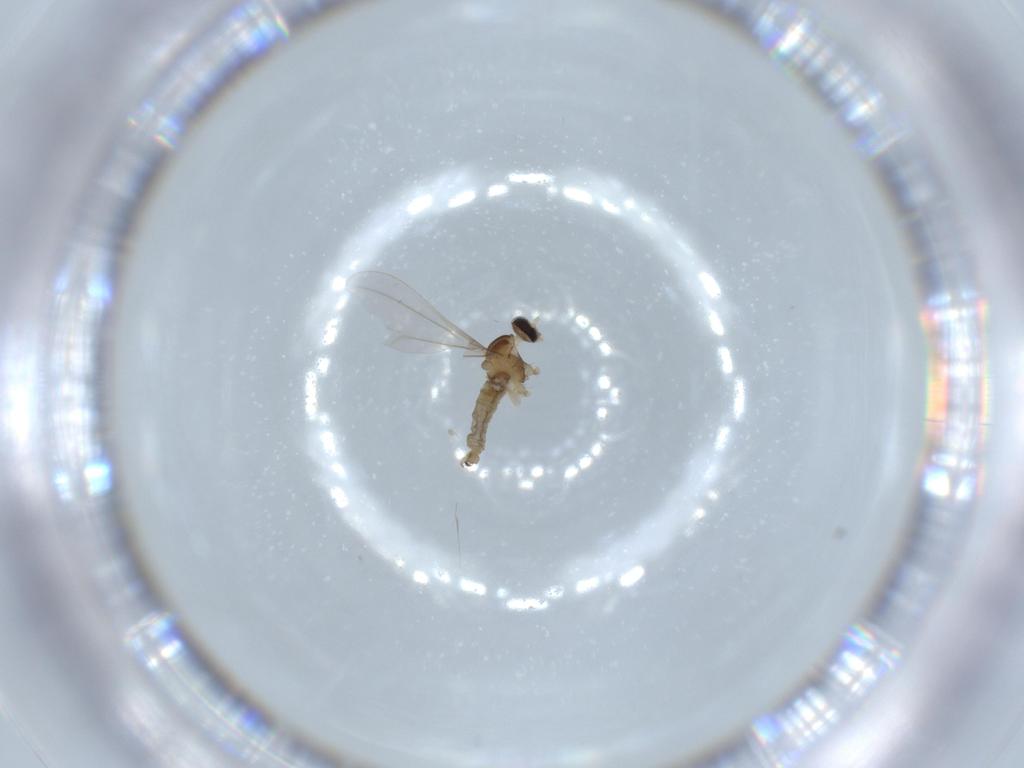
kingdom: Animalia
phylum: Arthropoda
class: Insecta
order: Diptera
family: Cecidomyiidae
